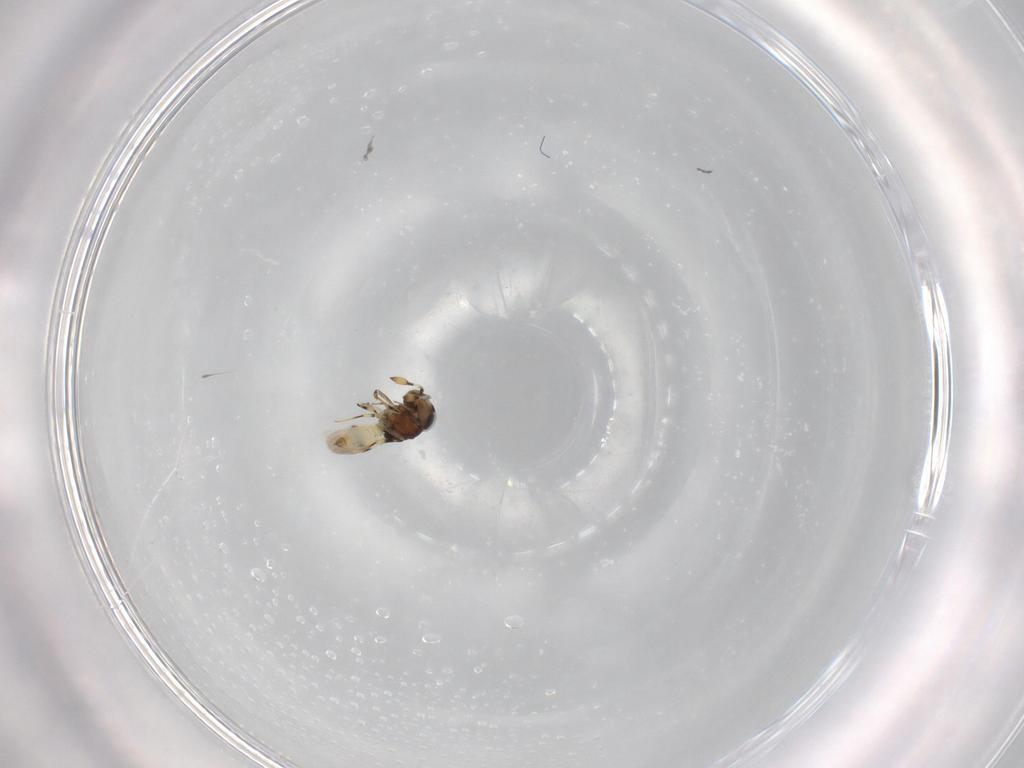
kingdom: Animalia
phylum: Arthropoda
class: Insecta
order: Hymenoptera
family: Scelionidae
